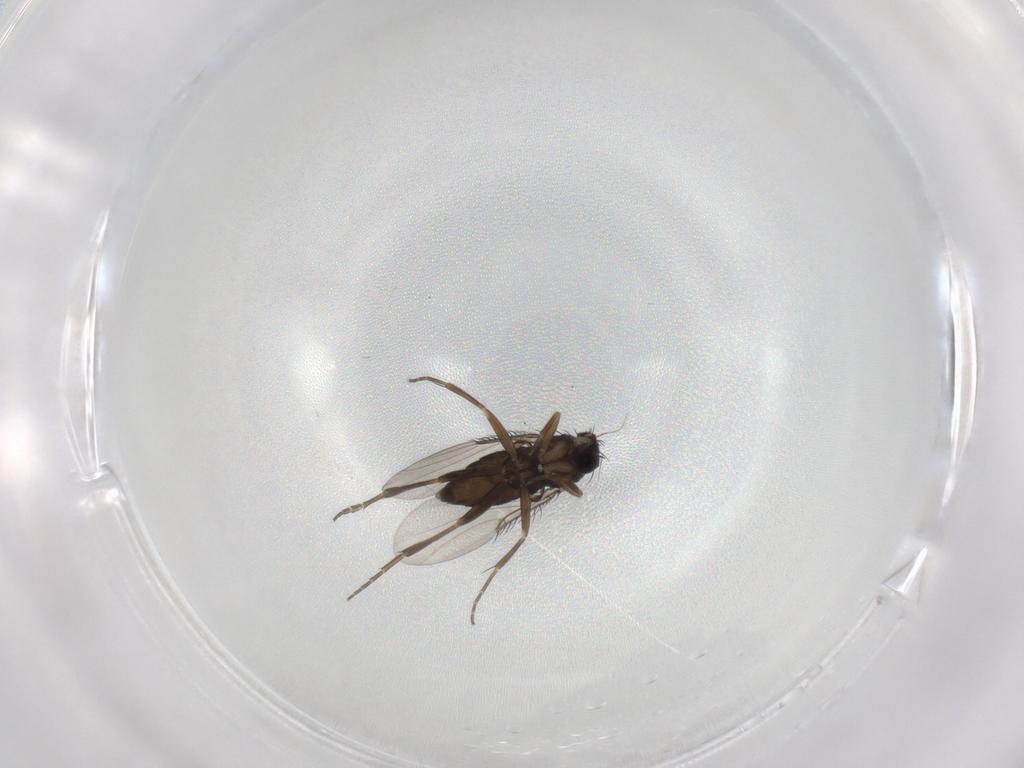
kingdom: Animalia
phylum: Arthropoda
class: Insecta
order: Diptera
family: Phoridae
